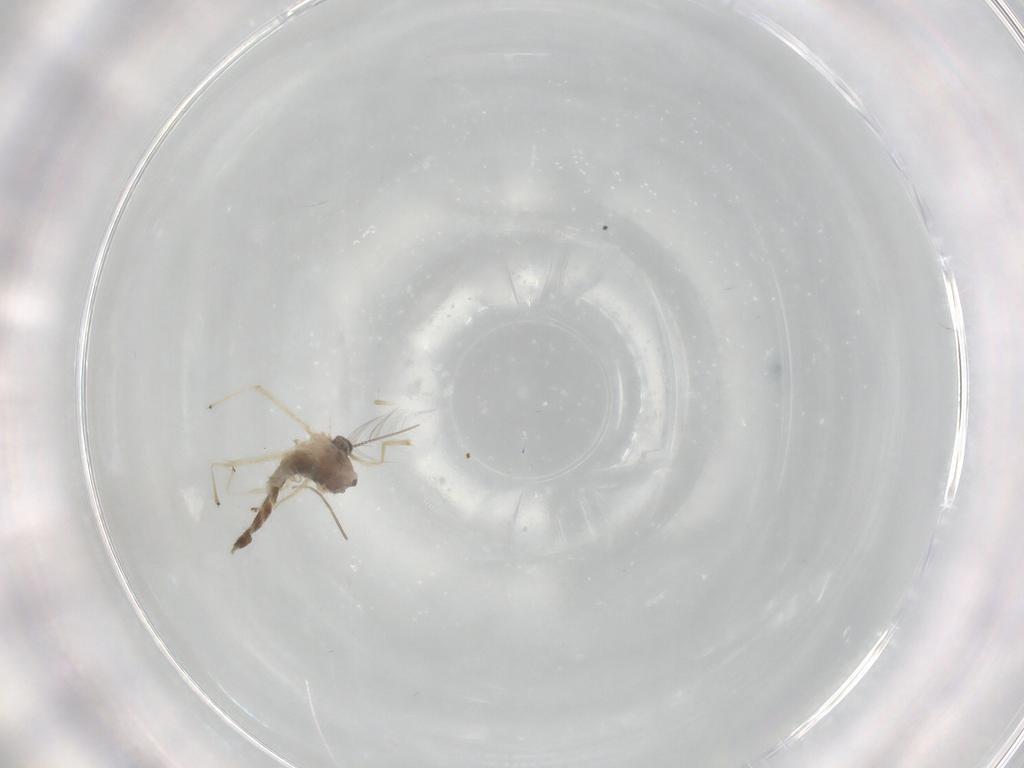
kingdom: Animalia
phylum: Arthropoda
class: Insecta
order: Diptera
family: Chironomidae
